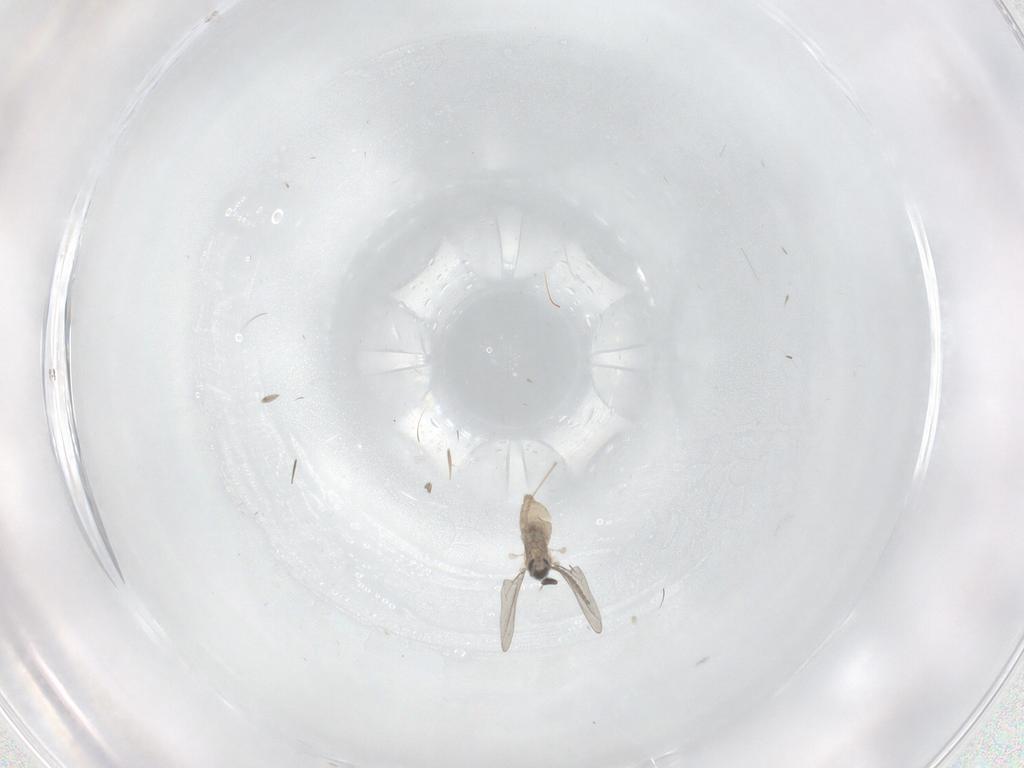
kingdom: Animalia
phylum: Arthropoda
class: Insecta
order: Diptera
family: Cecidomyiidae
